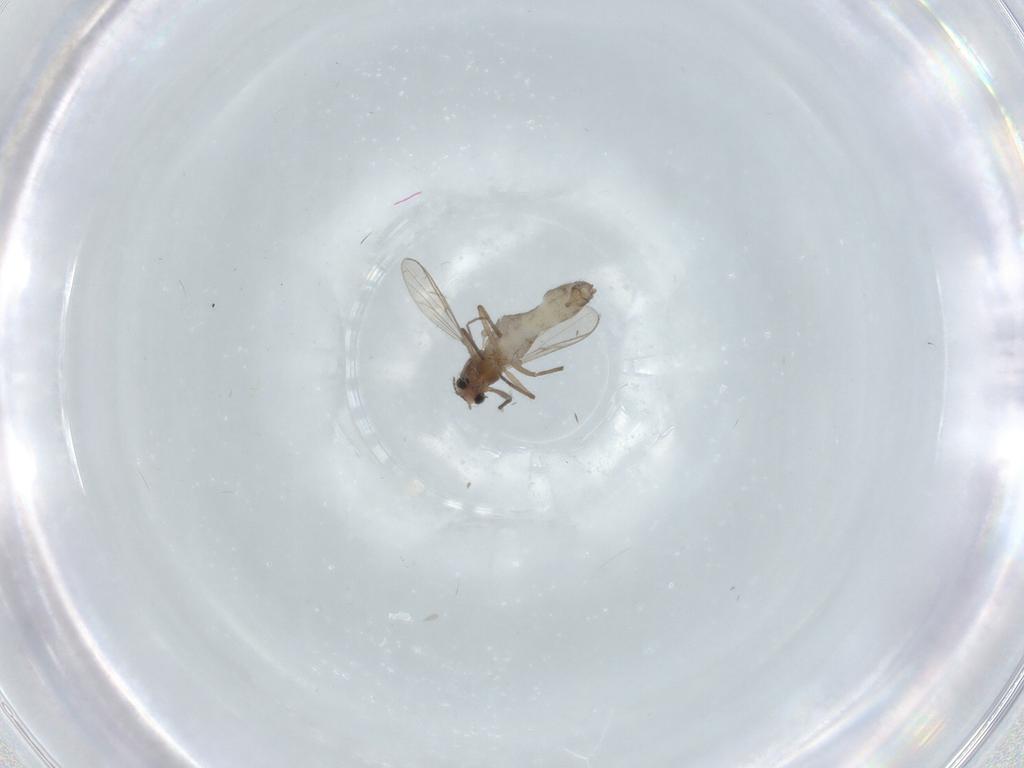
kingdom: Animalia
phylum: Arthropoda
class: Insecta
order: Diptera
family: Chironomidae
